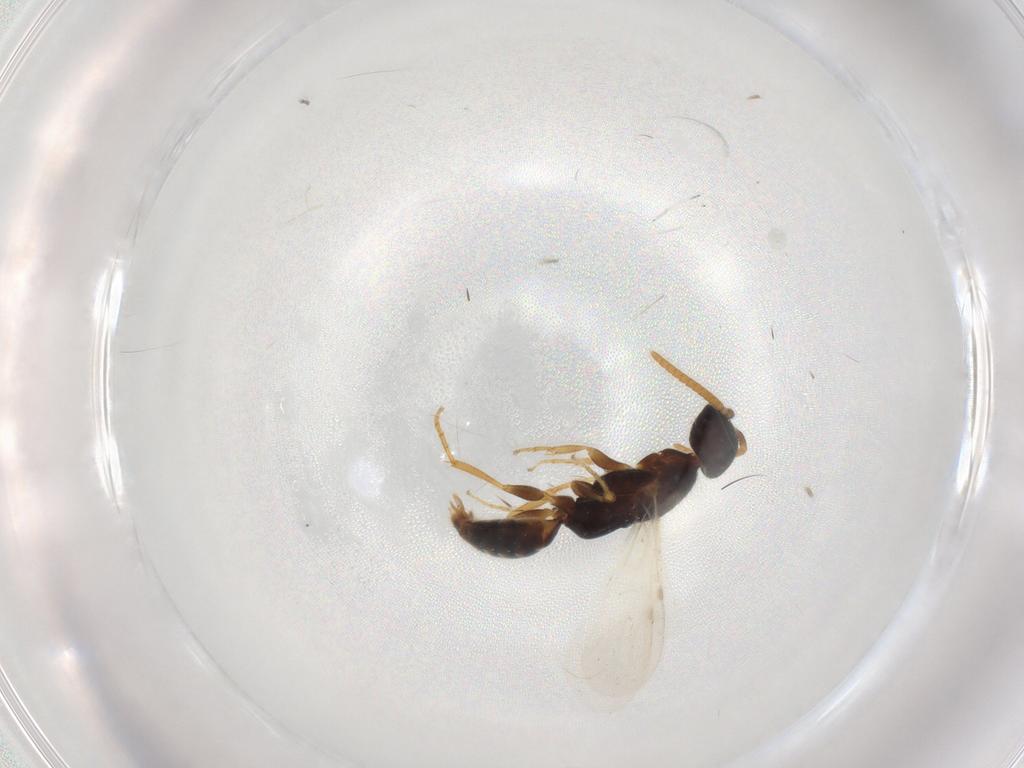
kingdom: Animalia
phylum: Arthropoda
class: Insecta
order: Hymenoptera
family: Bethylidae
